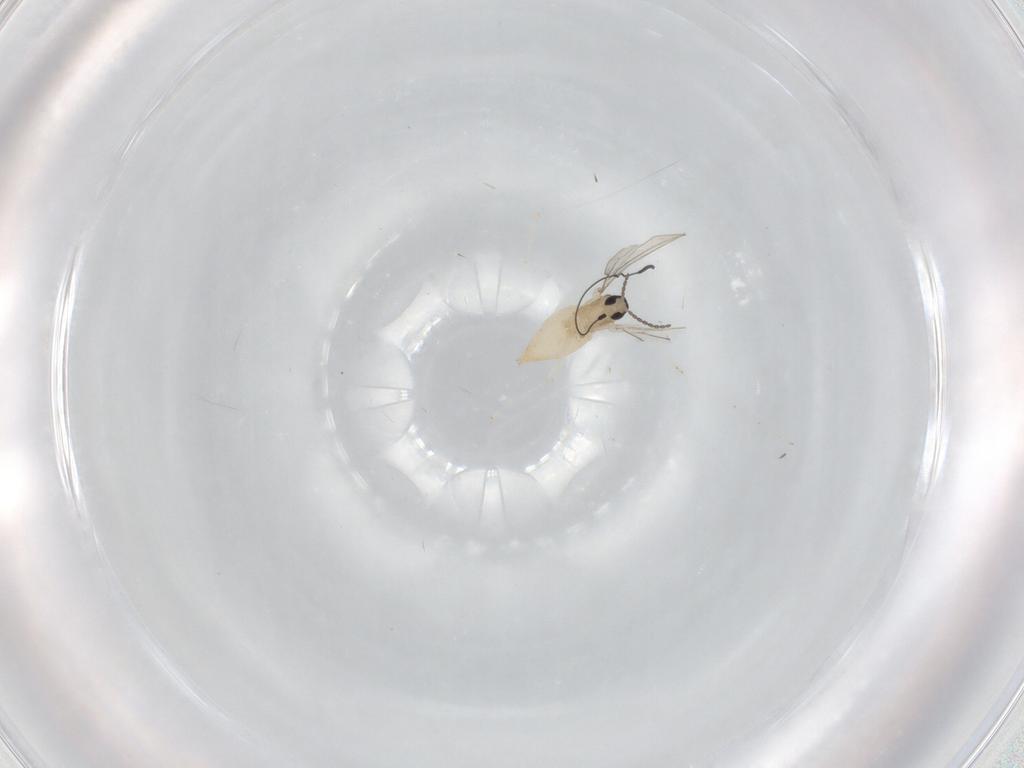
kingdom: Animalia
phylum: Arthropoda
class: Insecta
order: Diptera
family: Cecidomyiidae
